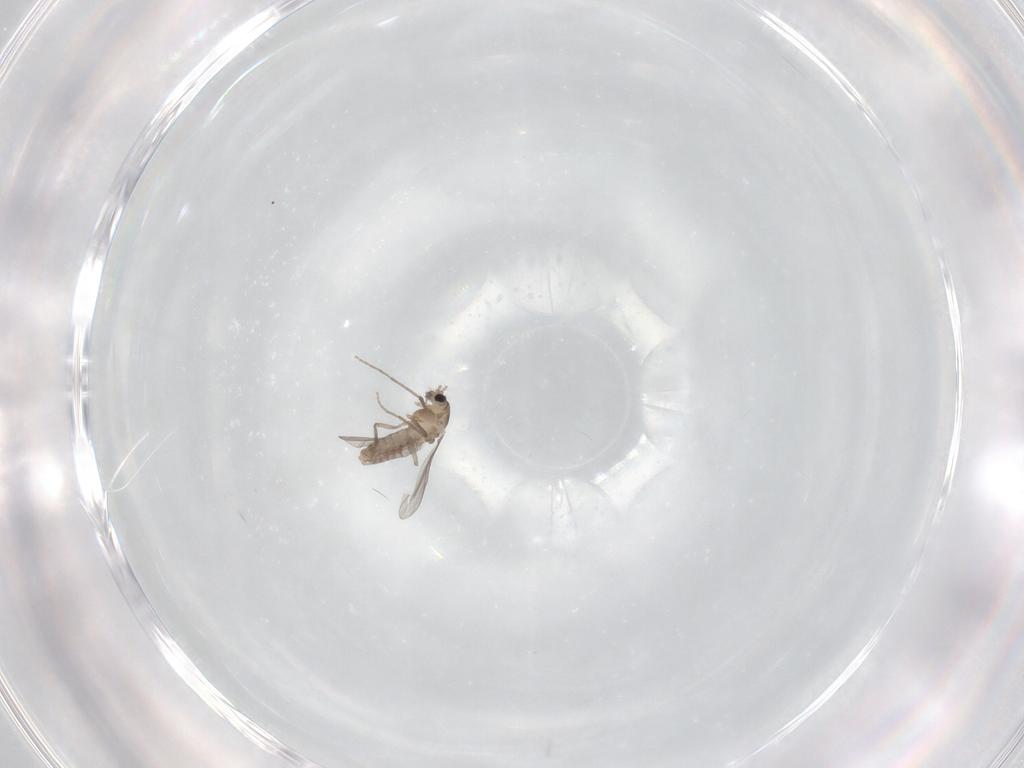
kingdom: Animalia
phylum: Arthropoda
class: Insecta
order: Diptera
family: Chironomidae
